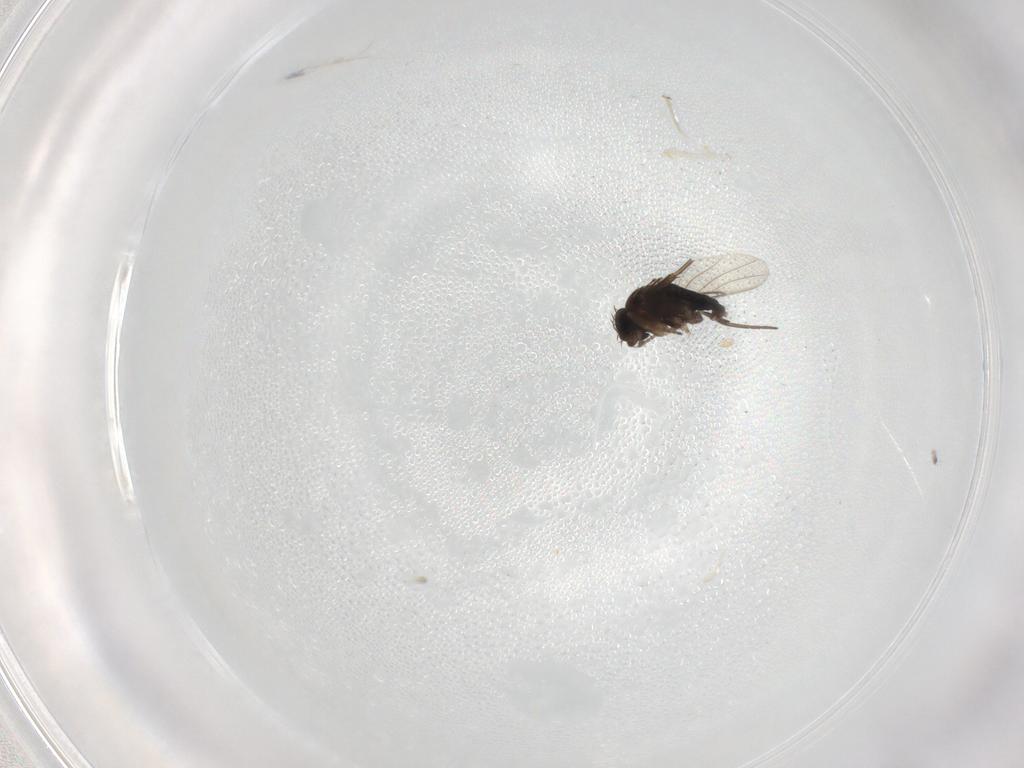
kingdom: Animalia
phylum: Arthropoda
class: Insecta
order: Diptera
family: Phoridae
